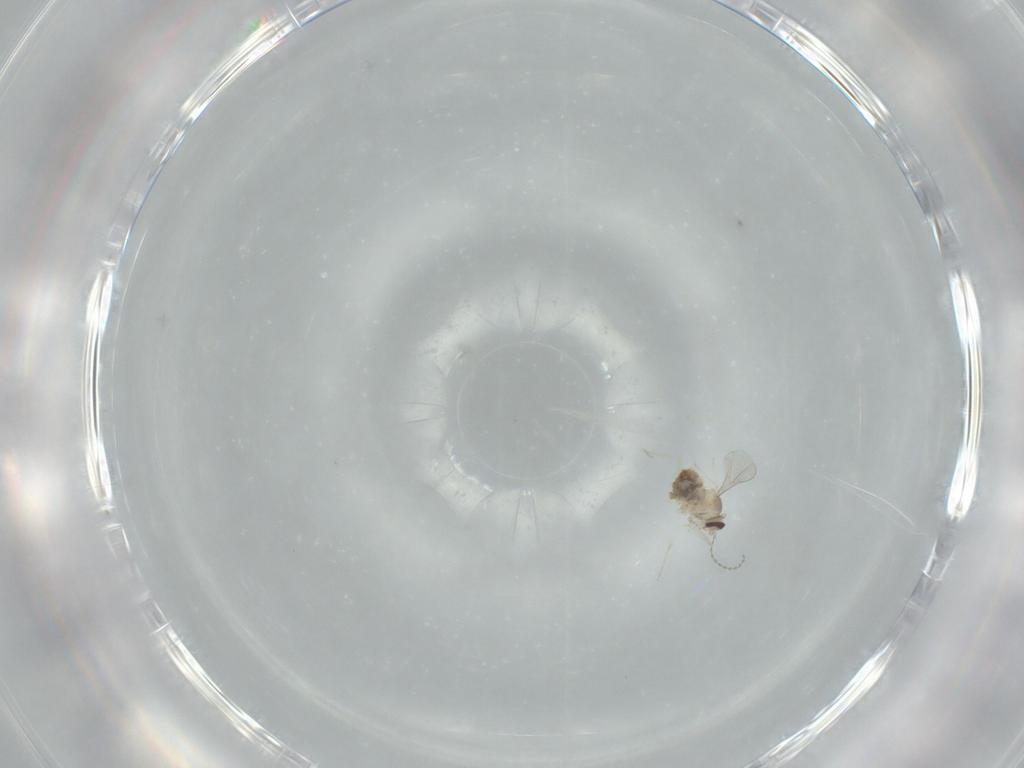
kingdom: Animalia
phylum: Arthropoda
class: Insecta
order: Diptera
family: Cecidomyiidae
